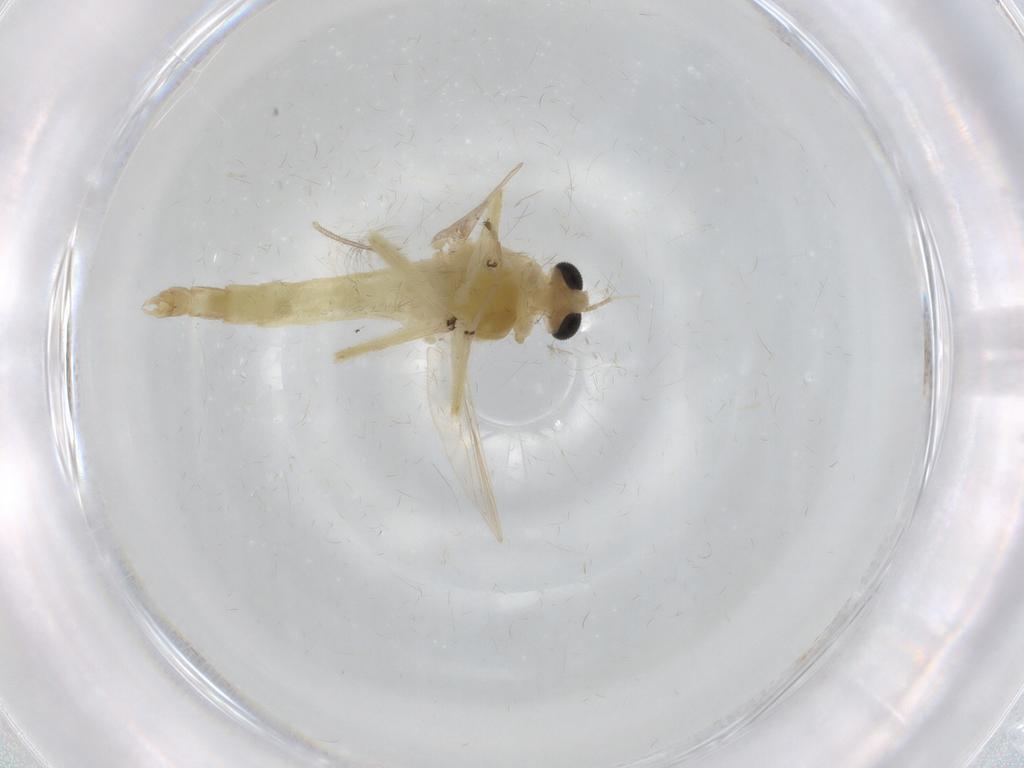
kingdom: Animalia
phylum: Arthropoda
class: Insecta
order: Diptera
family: Chironomidae
